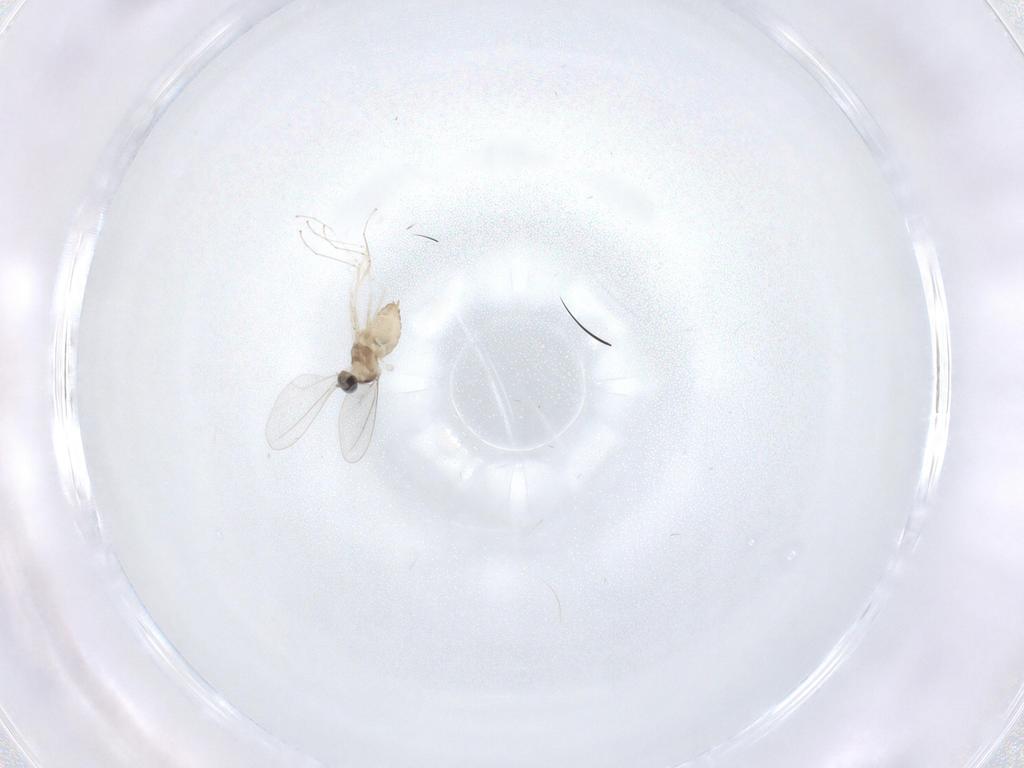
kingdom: Animalia
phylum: Arthropoda
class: Insecta
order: Diptera
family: Cecidomyiidae
